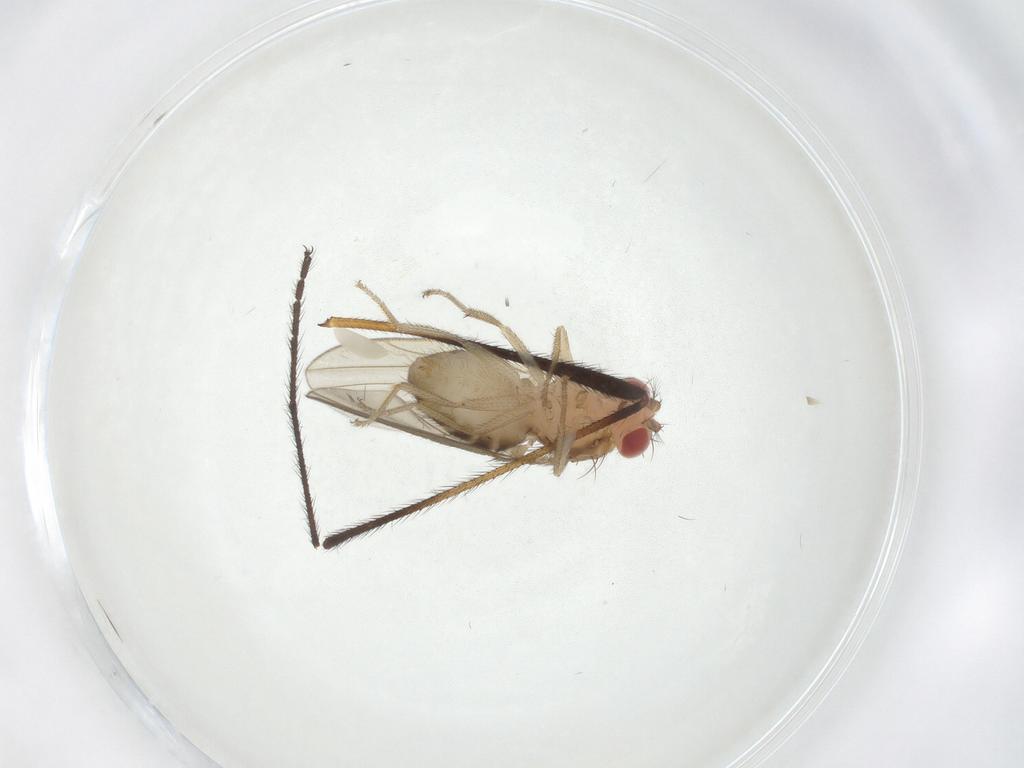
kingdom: Animalia
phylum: Arthropoda
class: Insecta
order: Diptera
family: Limoniidae
